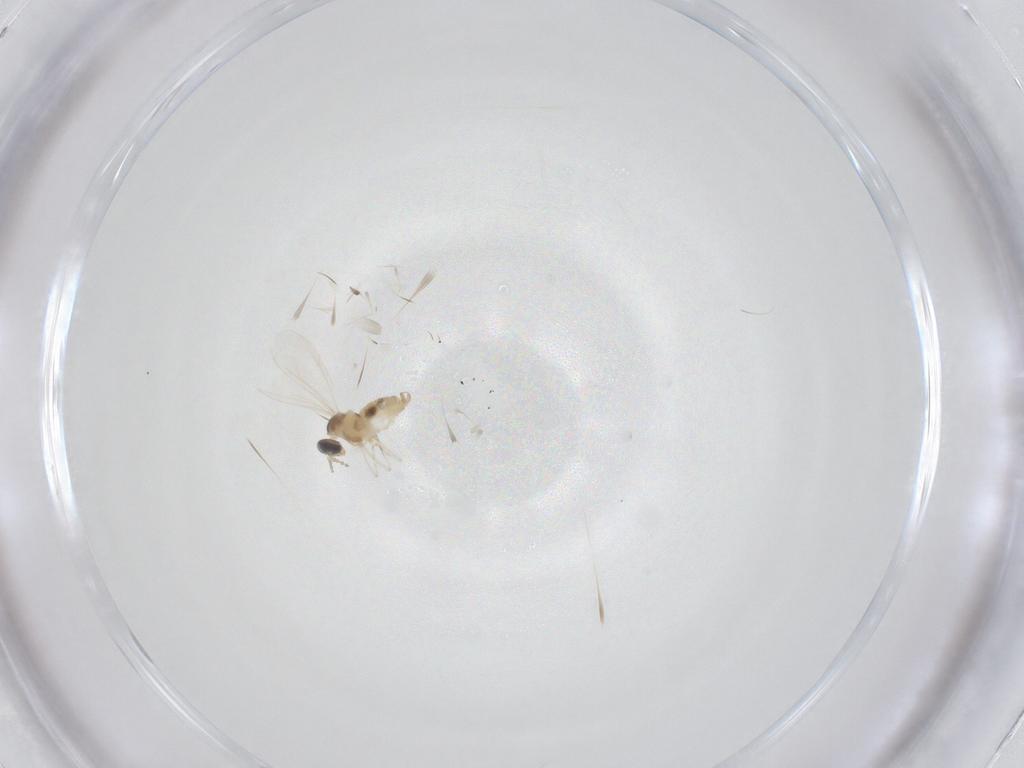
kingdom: Animalia
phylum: Arthropoda
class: Insecta
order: Diptera
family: Cecidomyiidae
